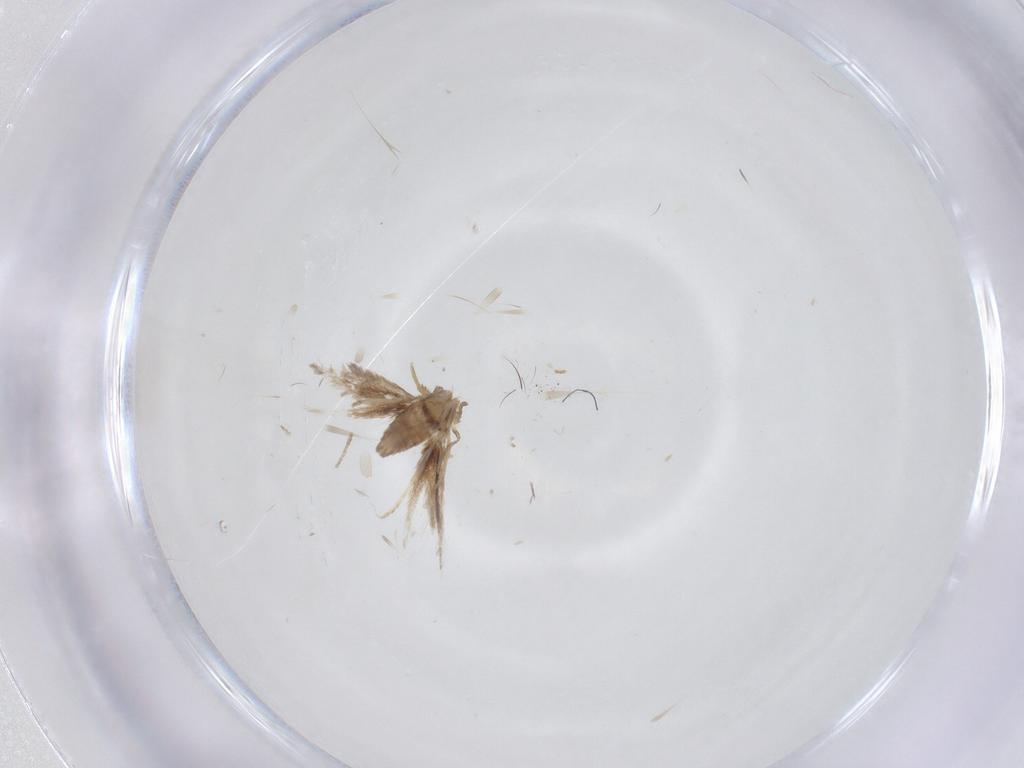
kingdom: Animalia
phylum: Arthropoda
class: Insecta
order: Lepidoptera
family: Nepticulidae
